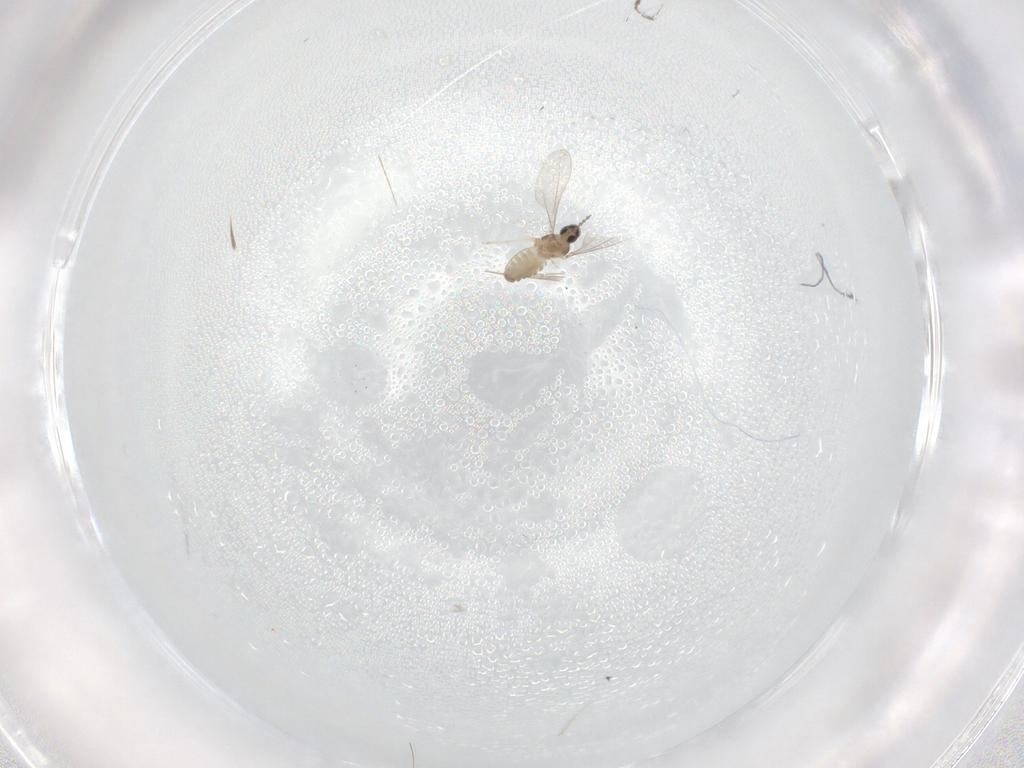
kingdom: Animalia
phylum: Arthropoda
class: Insecta
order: Diptera
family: Cecidomyiidae
